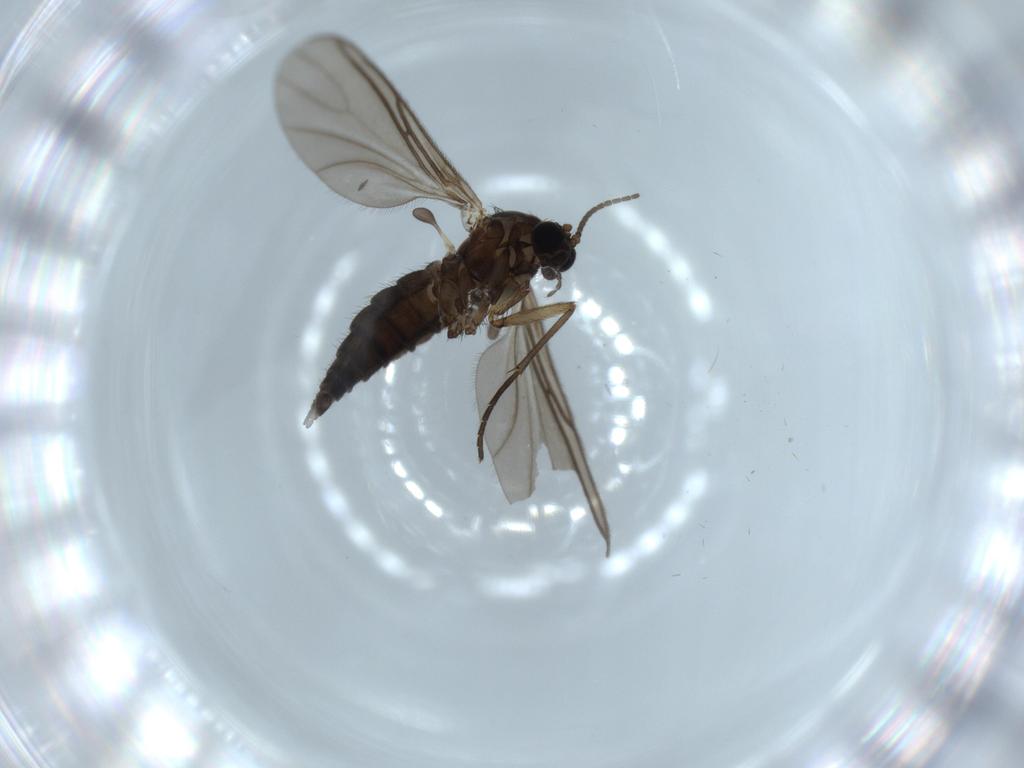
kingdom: Animalia
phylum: Arthropoda
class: Insecta
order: Diptera
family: Sciaridae
